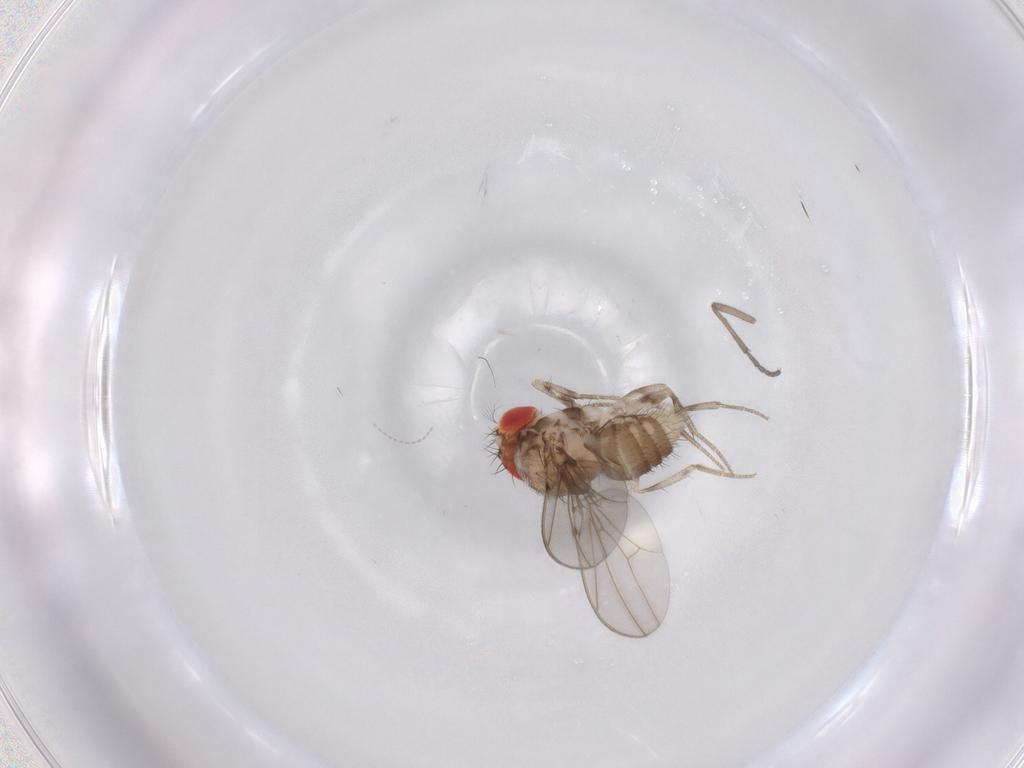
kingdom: Animalia
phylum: Arthropoda
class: Insecta
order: Diptera
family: Drosophilidae
